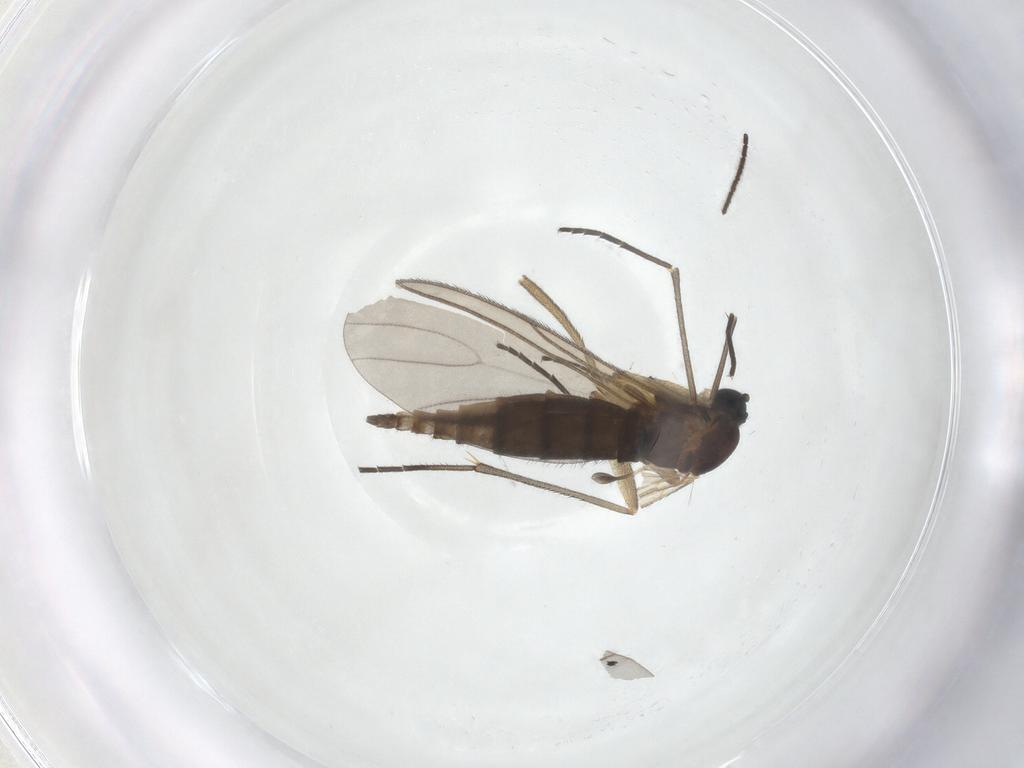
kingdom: Animalia
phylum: Arthropoda
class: Insecta
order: Diptera
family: Sciaridae
